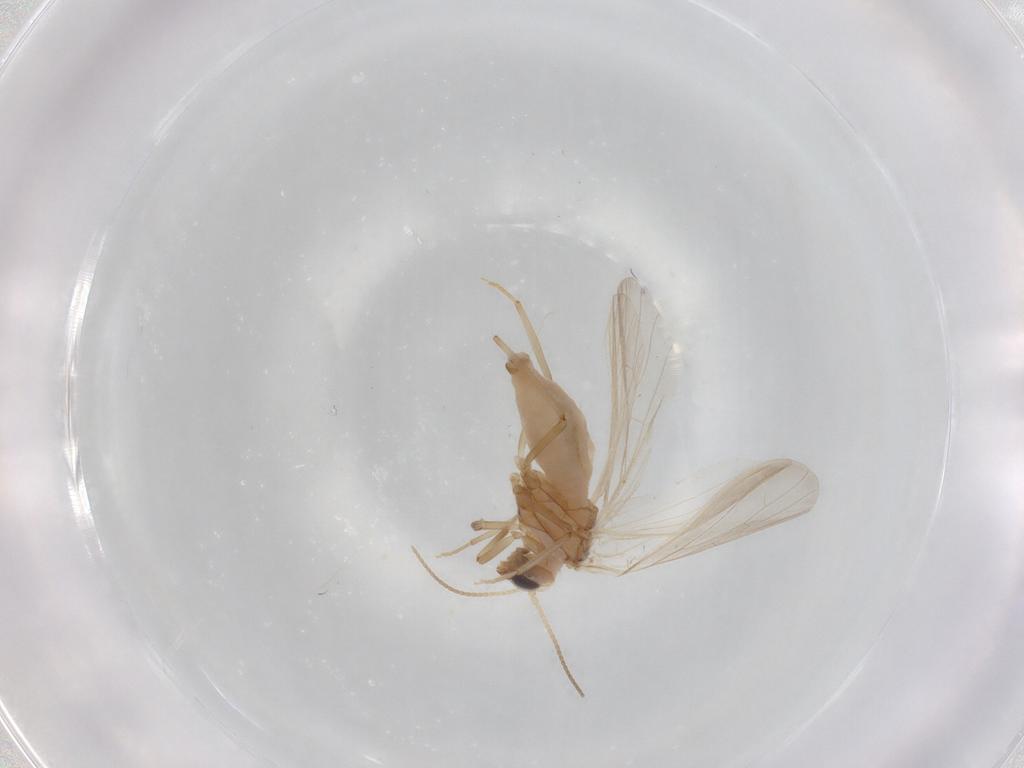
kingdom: Animalia
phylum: Arthropoda
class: Insecta
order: Neuroptera
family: Coniopterygidae
